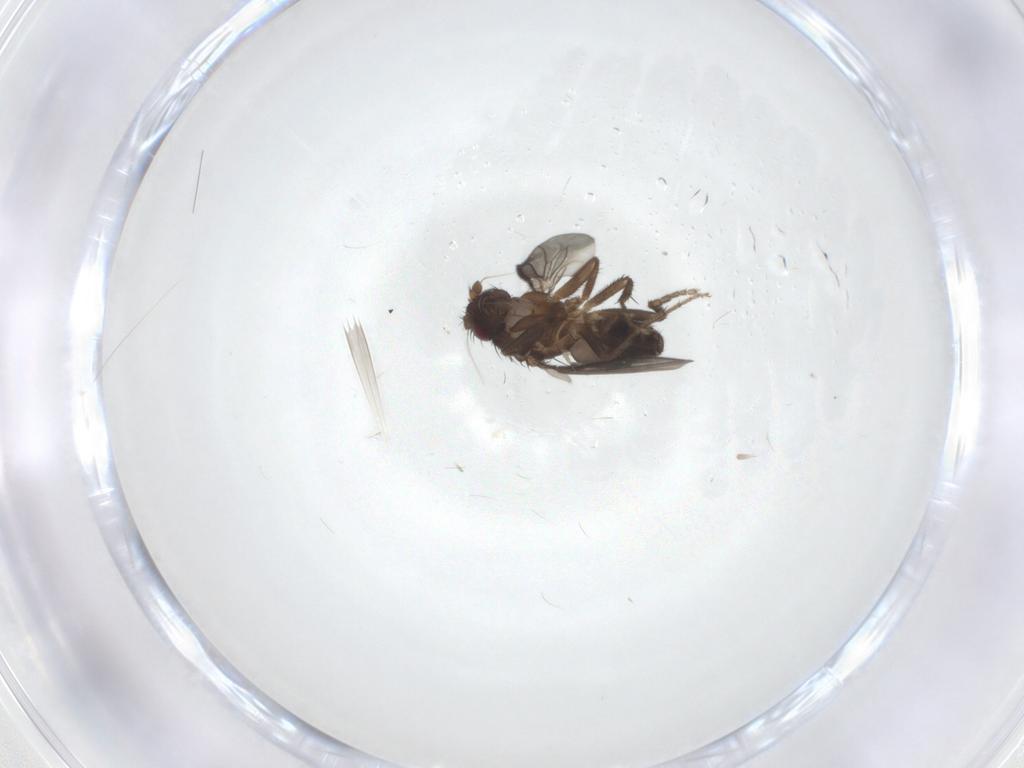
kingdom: Animalia
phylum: Arthropoda
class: Insecta
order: Diptera
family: Sphaeroceridae
